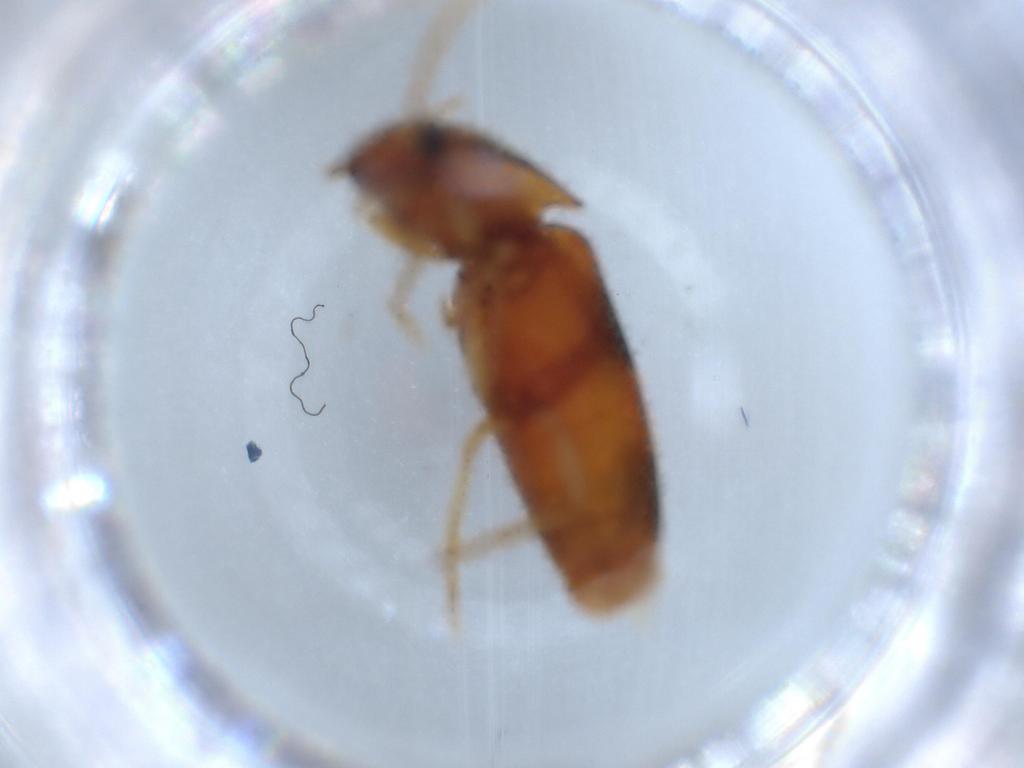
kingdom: Animalia
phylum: Arthropoda
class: Insecta
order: Coleoptera
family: Elateridae
